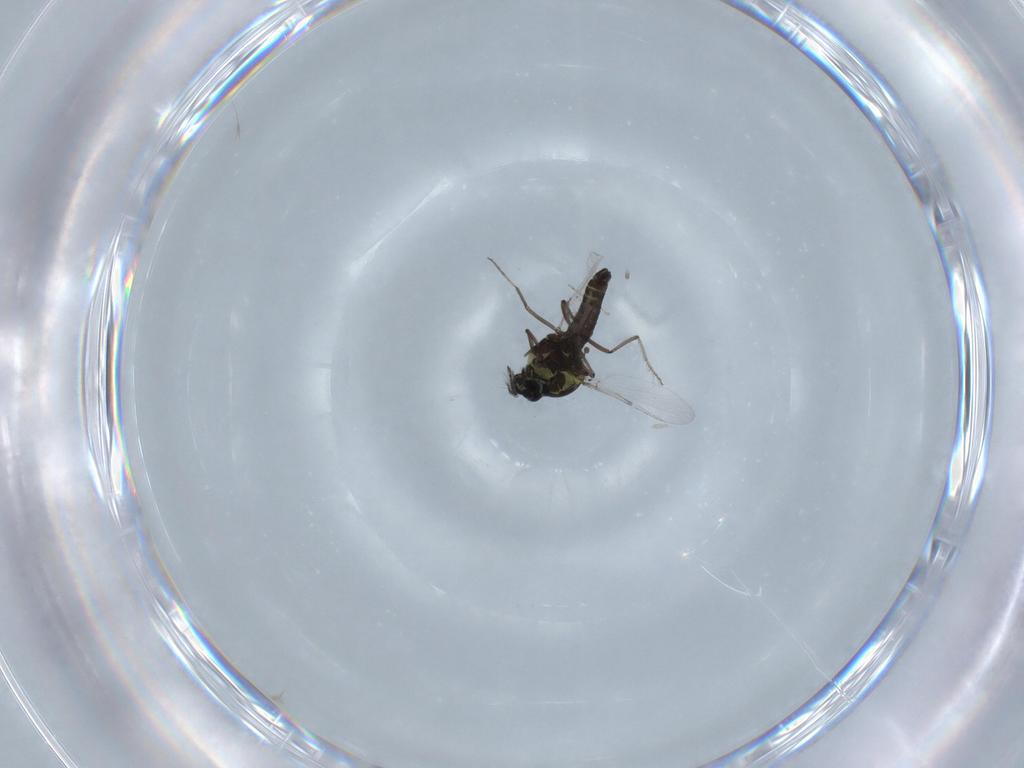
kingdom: Animalia
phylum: Arthropoda
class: Insecta
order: Diptera
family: Ceratopogonidae
